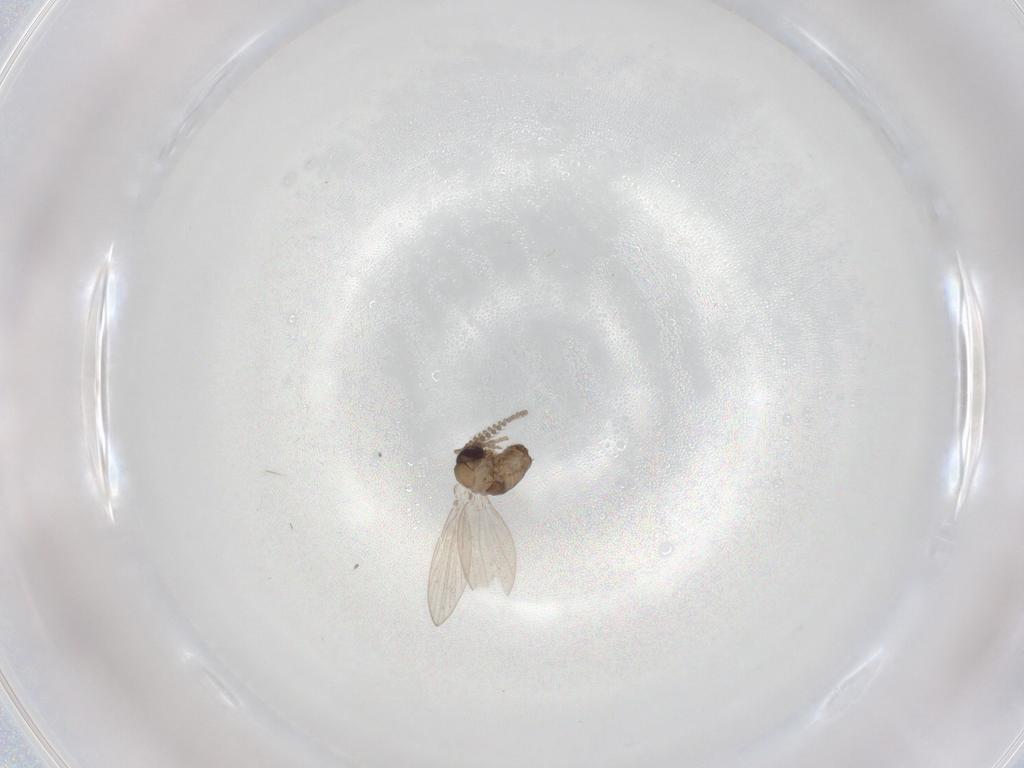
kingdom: Animalia
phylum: Arthropoda
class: Insecta
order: Diptera
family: Psychodidae
